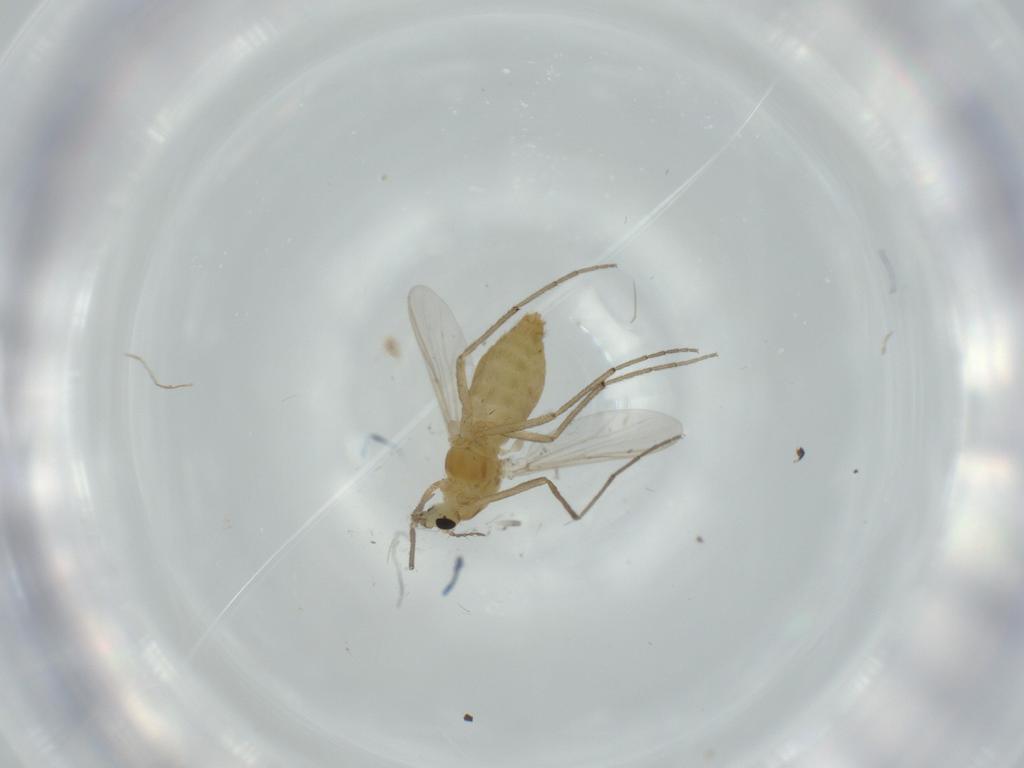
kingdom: Animalia
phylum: Arthropoda
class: Insecta
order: Diptera
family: Chironomidae
